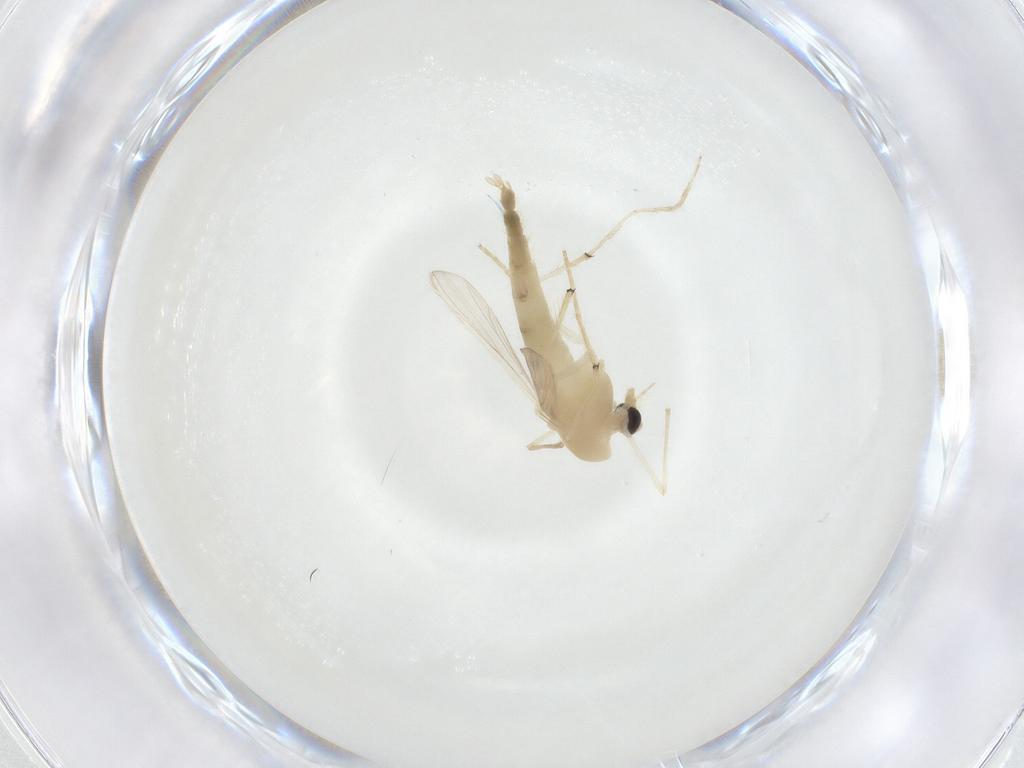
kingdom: Animalia
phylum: Arthropoda
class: Insecta
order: Diptera
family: Chironomidae
